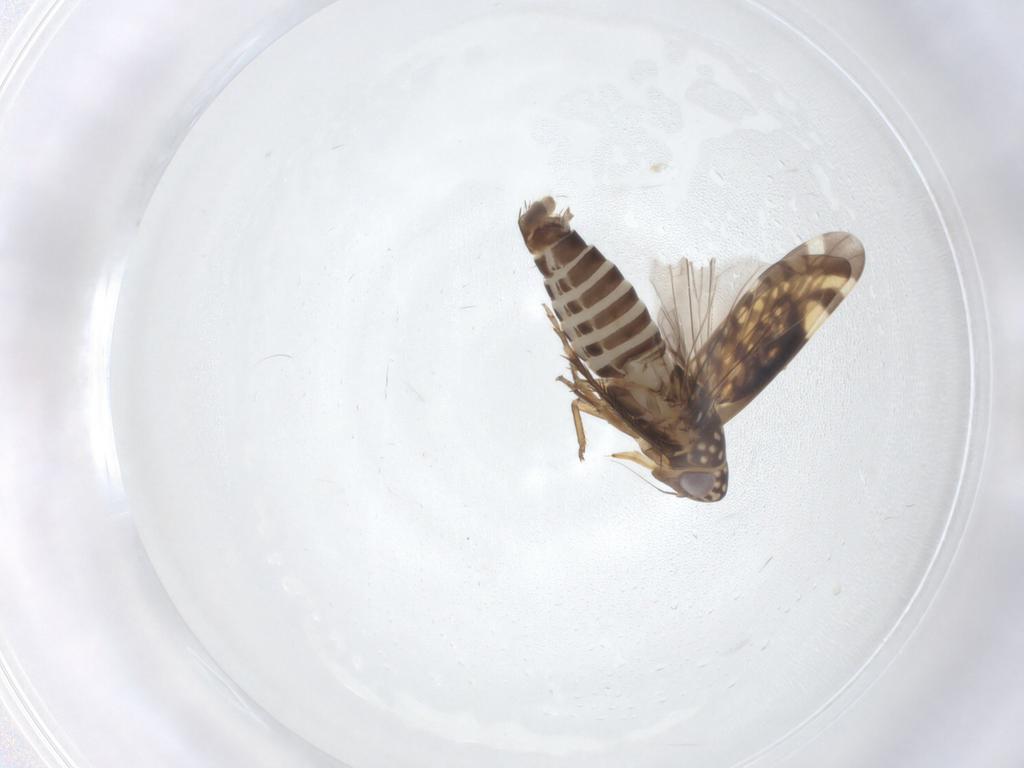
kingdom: Animalia
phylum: Arthropoda
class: Insecta
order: Hemiptera
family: Cicadellidae
